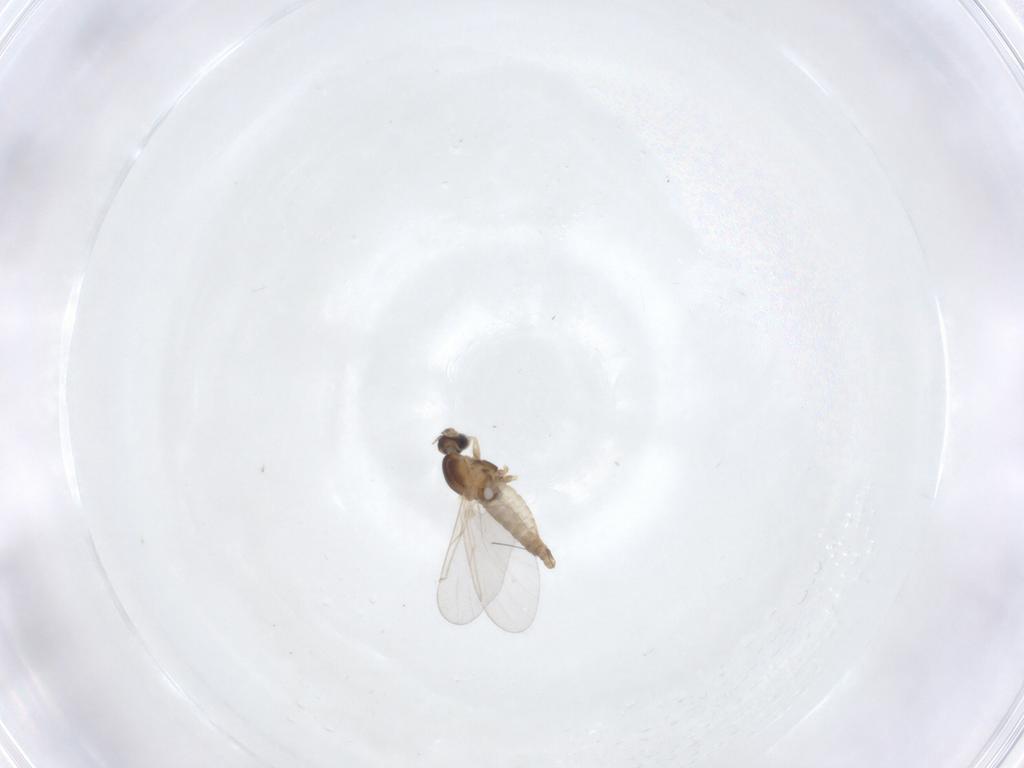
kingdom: Animalia
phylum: Arthropoda
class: Insecta
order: Diptera
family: Cecidomyiidae
